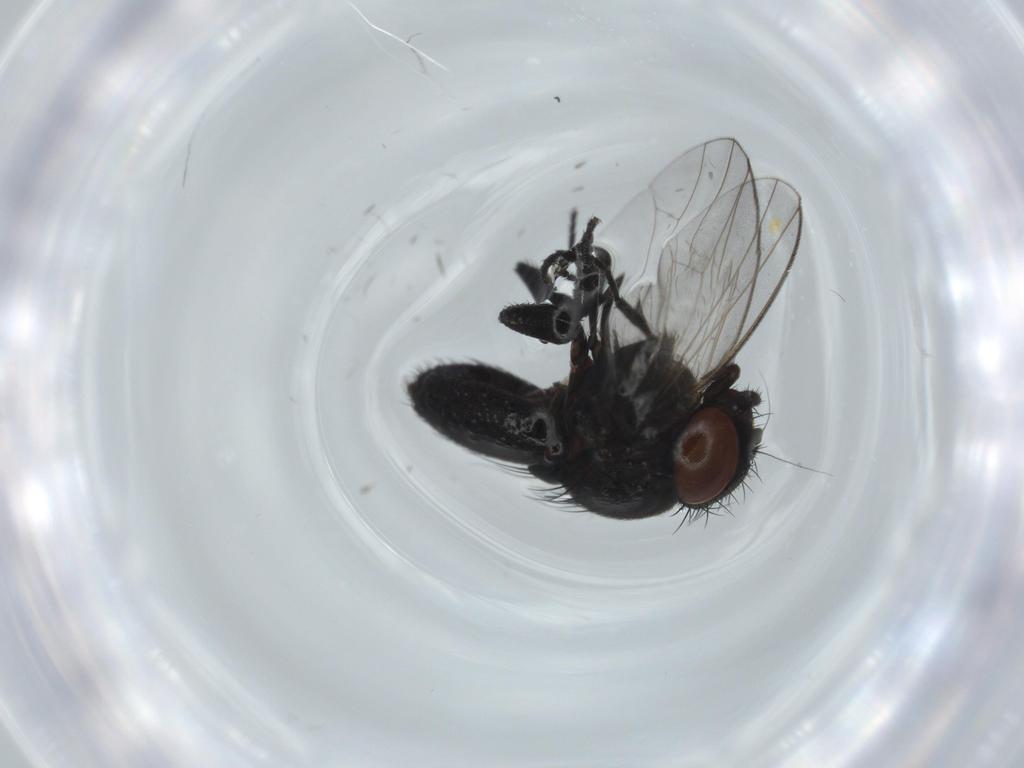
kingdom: Animalia
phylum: Arthropoda
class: Insecta
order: Diptera
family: Milichiidae
